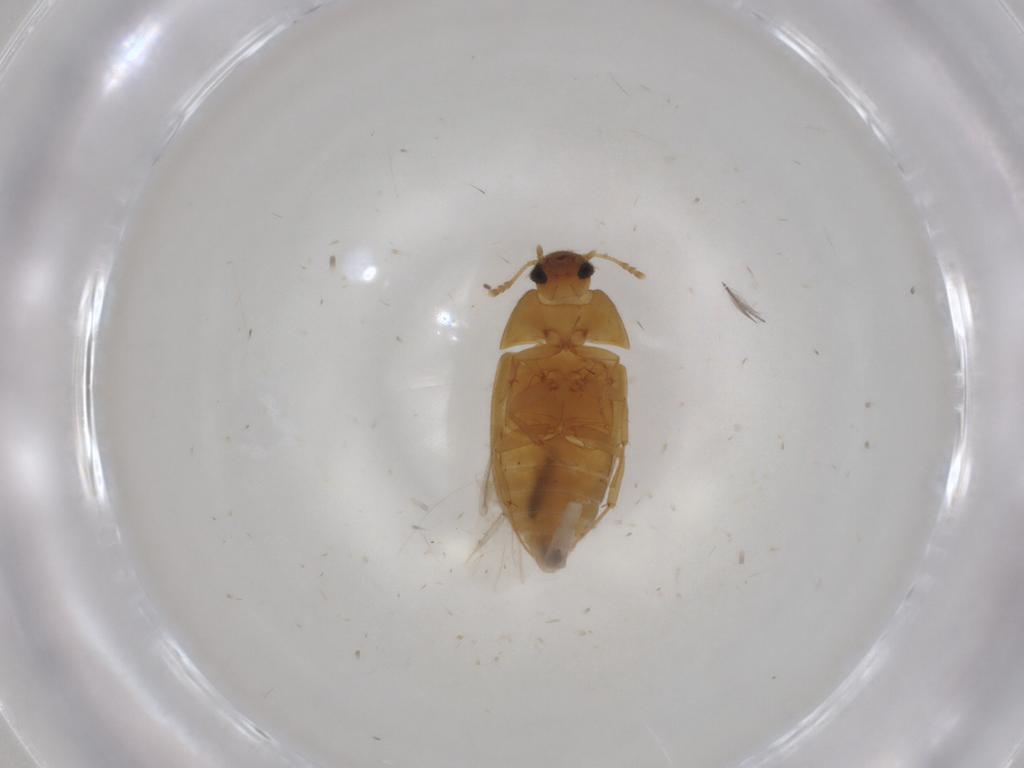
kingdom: Animalia
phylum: Arthropoda
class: Insecta
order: Coleoptera
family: Mycetophagidae
